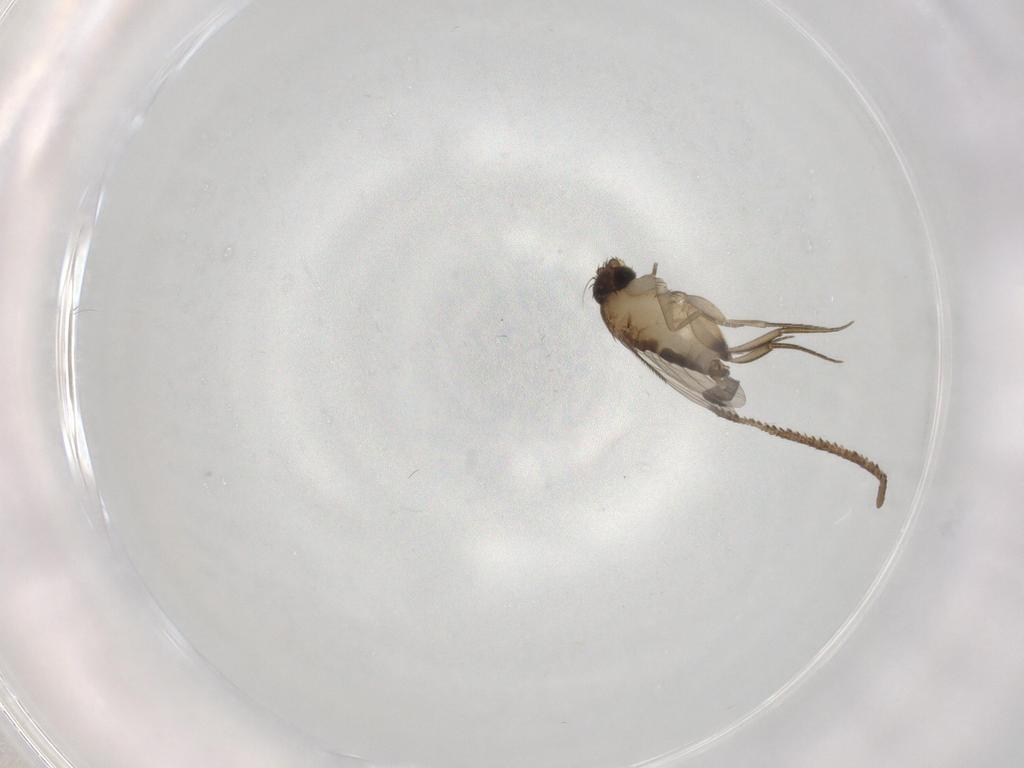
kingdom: Animalia
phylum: Arthropoda
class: Insecta
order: Diptera
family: Phoridae
